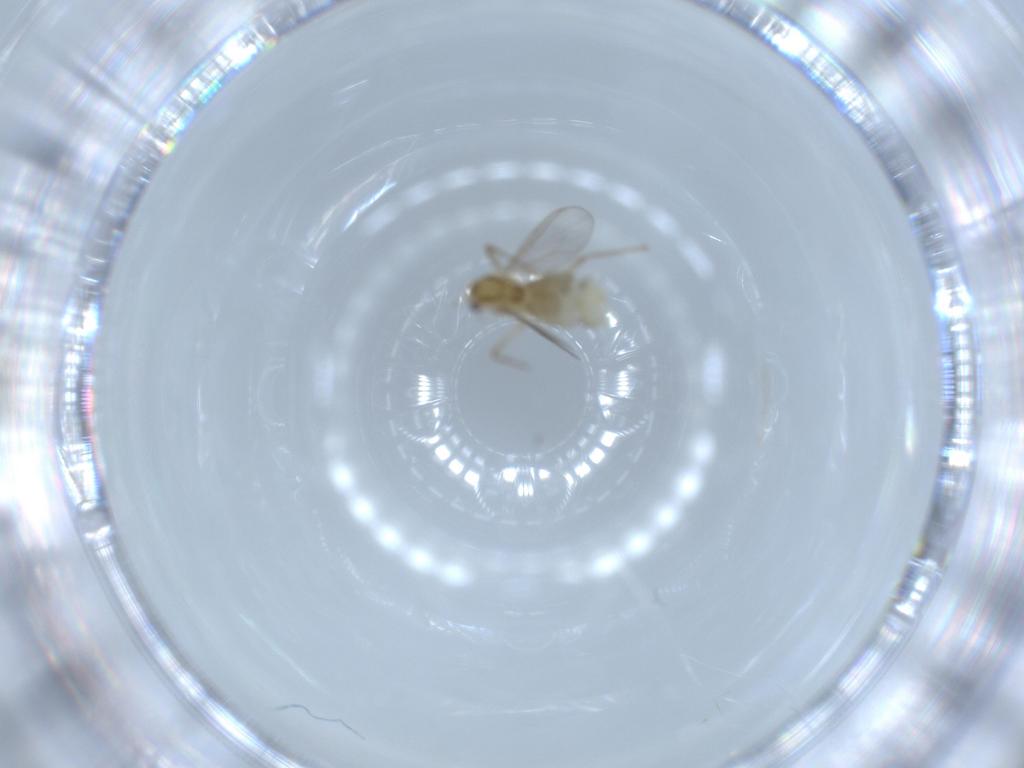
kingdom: Animalia
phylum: Arthropoda
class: Insecta
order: Diptera
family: Chironomidae
